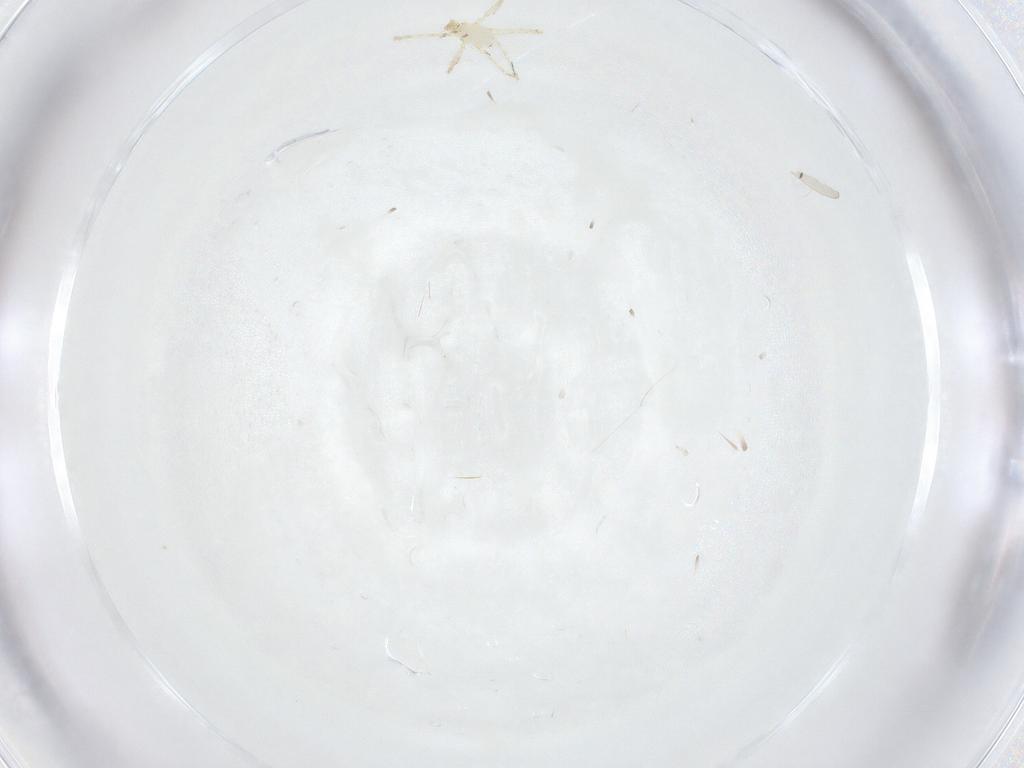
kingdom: Animalia
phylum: Arthropoda
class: Arachnida
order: Trombidiformes
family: Erythraeidae
